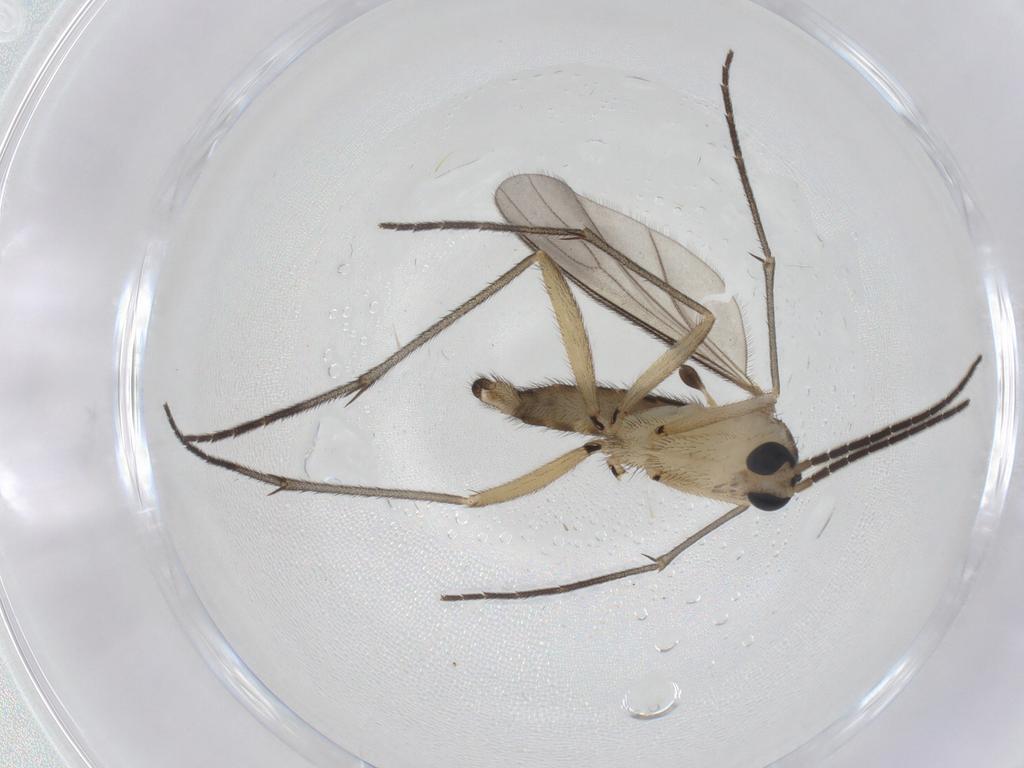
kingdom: Animalia
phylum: Arthropoda
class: Insecta
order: Diptera
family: Sciaridae
